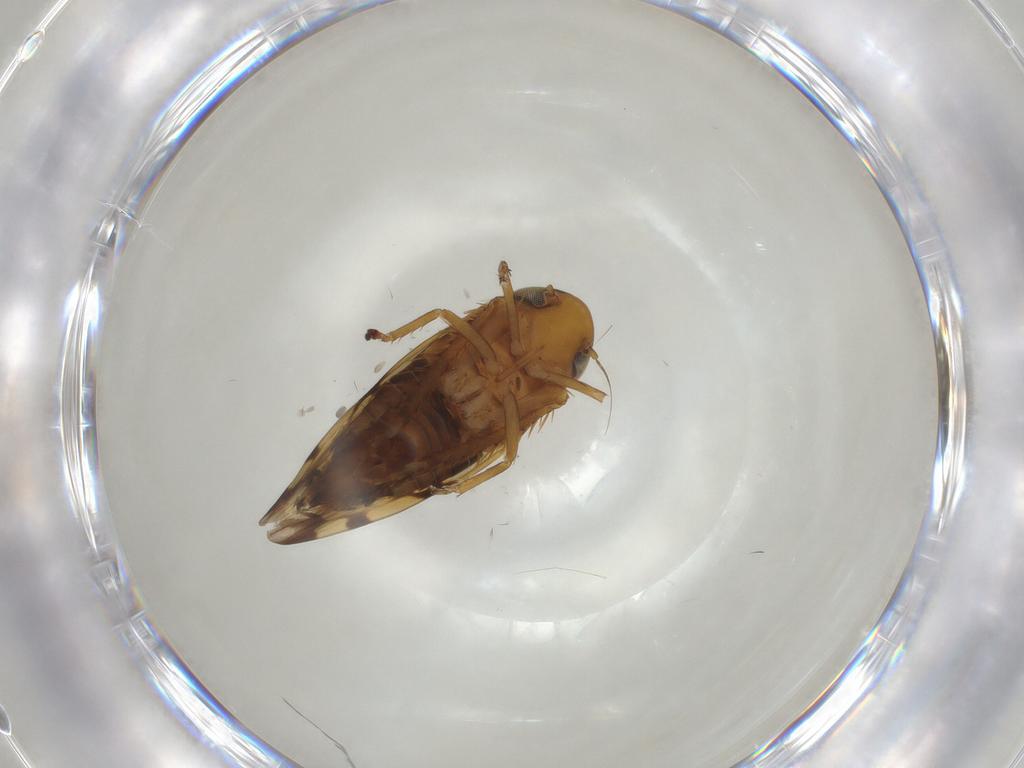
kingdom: Animalia
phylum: Arthropoda
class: Insecta
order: Hemiptera
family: Cicadellidae
